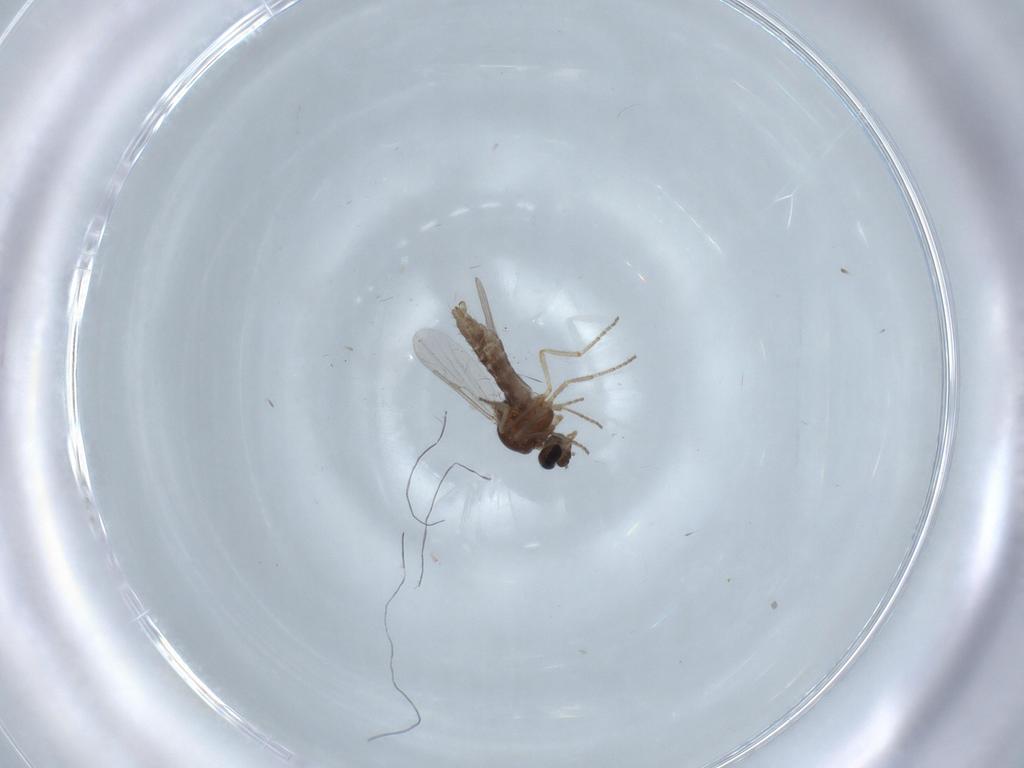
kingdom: Animalia
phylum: Arthropoda
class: Insecta
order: Diptera
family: Ceratopogonidae
